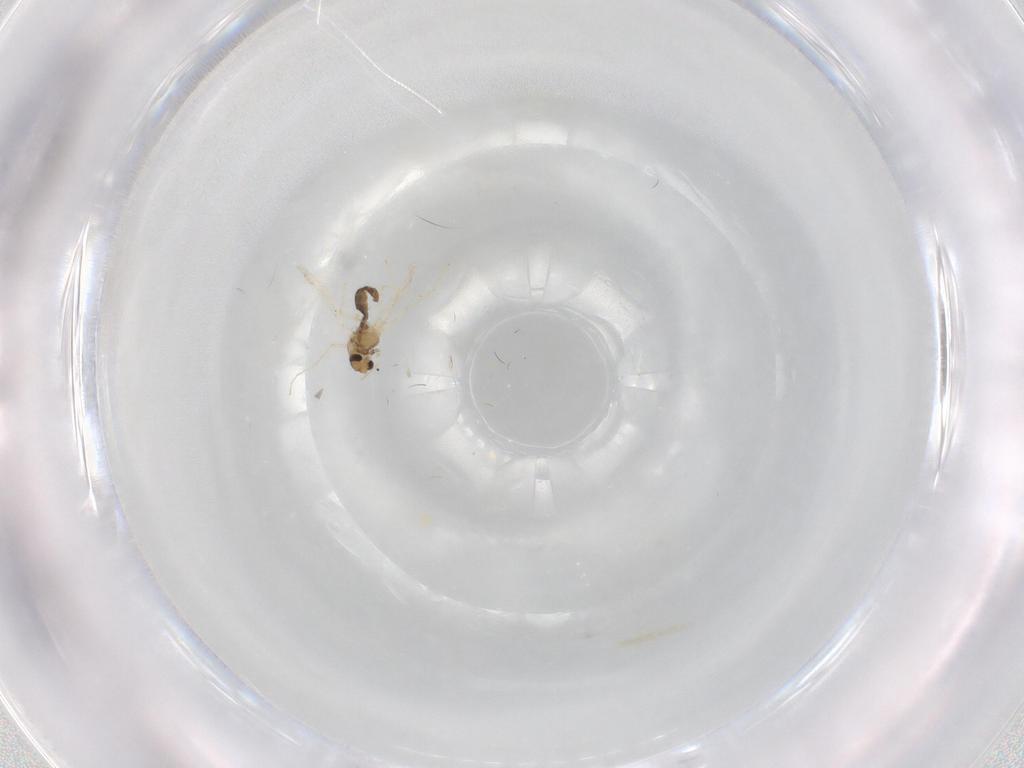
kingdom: Animalia
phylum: Arthropoda
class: Insecta
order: Diptera
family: Chironomidae
